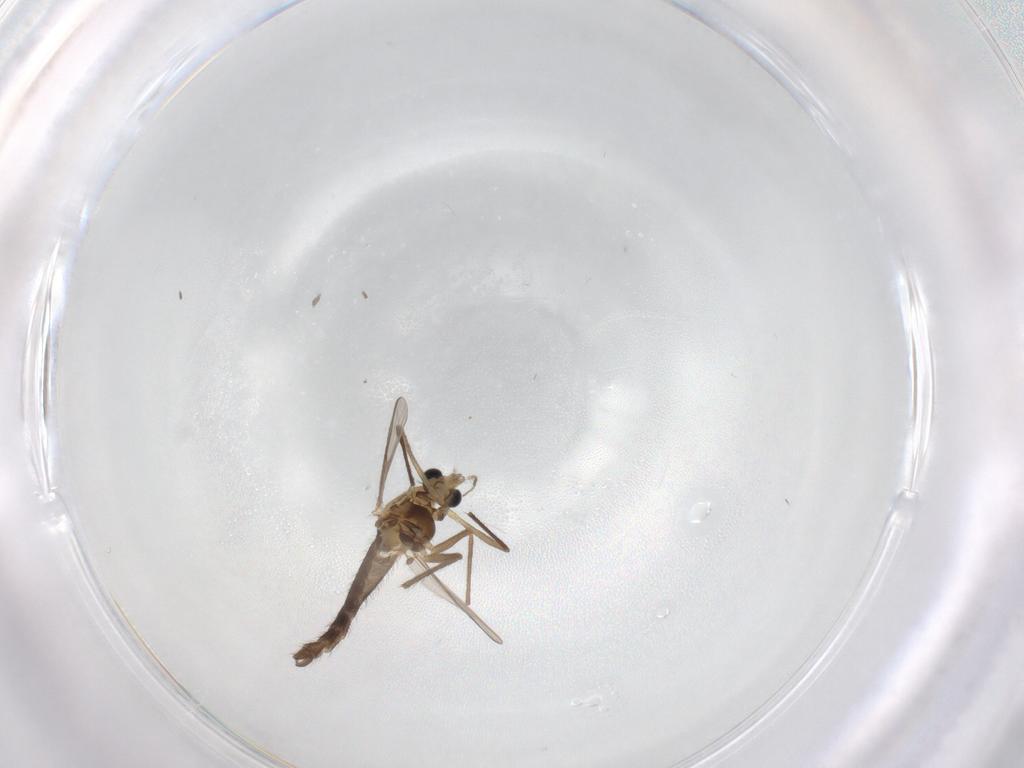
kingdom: Animalia
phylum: Arthropoda
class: Insecta
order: Diptera
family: Chironomidae
